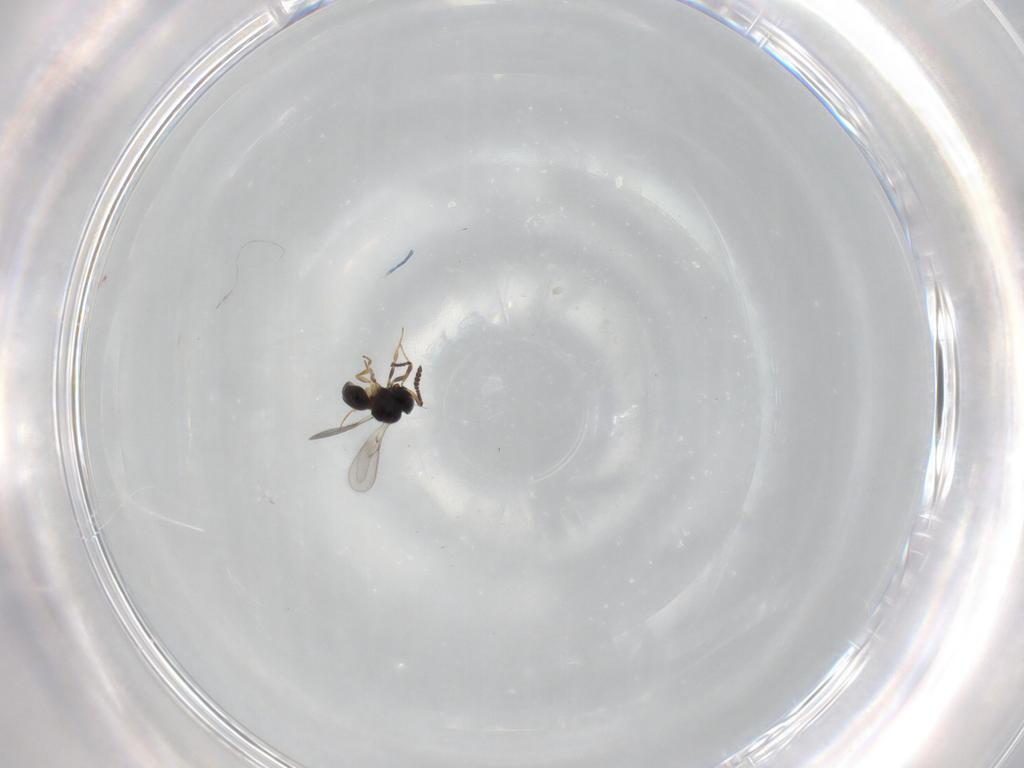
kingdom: Animalia
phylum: Arthropoda
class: Insecta
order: Hymenoptera
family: Scelionidae
